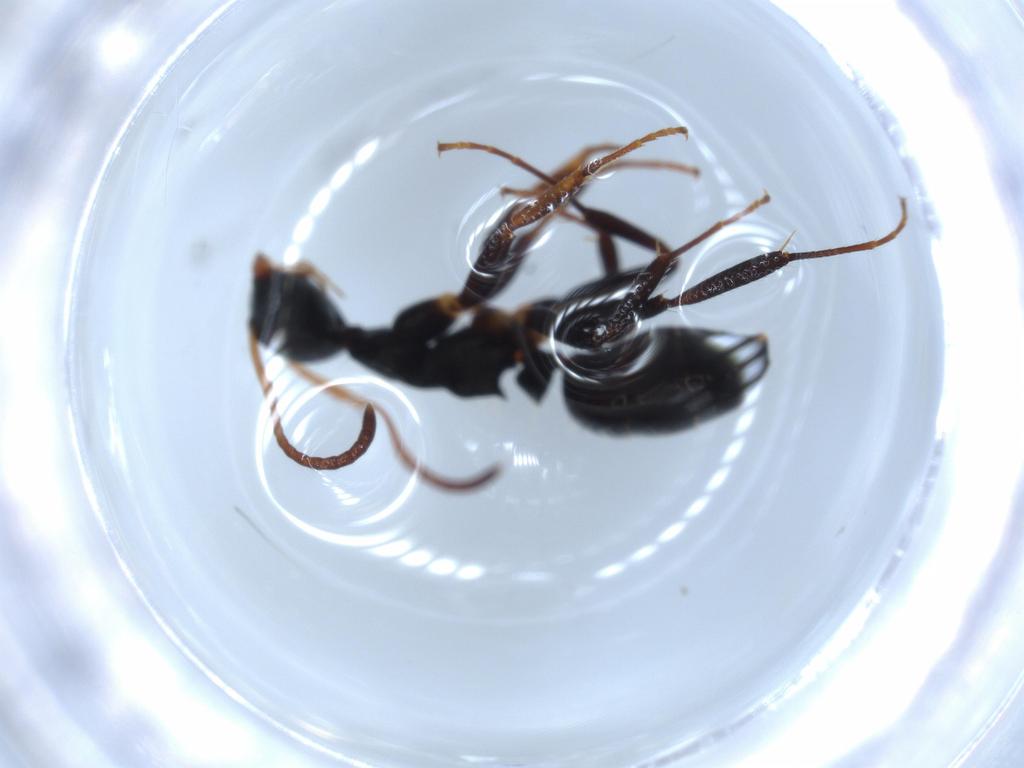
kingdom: Animalia
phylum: Arthropoda
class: Insecta
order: Hymenoptera
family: Formicidae
